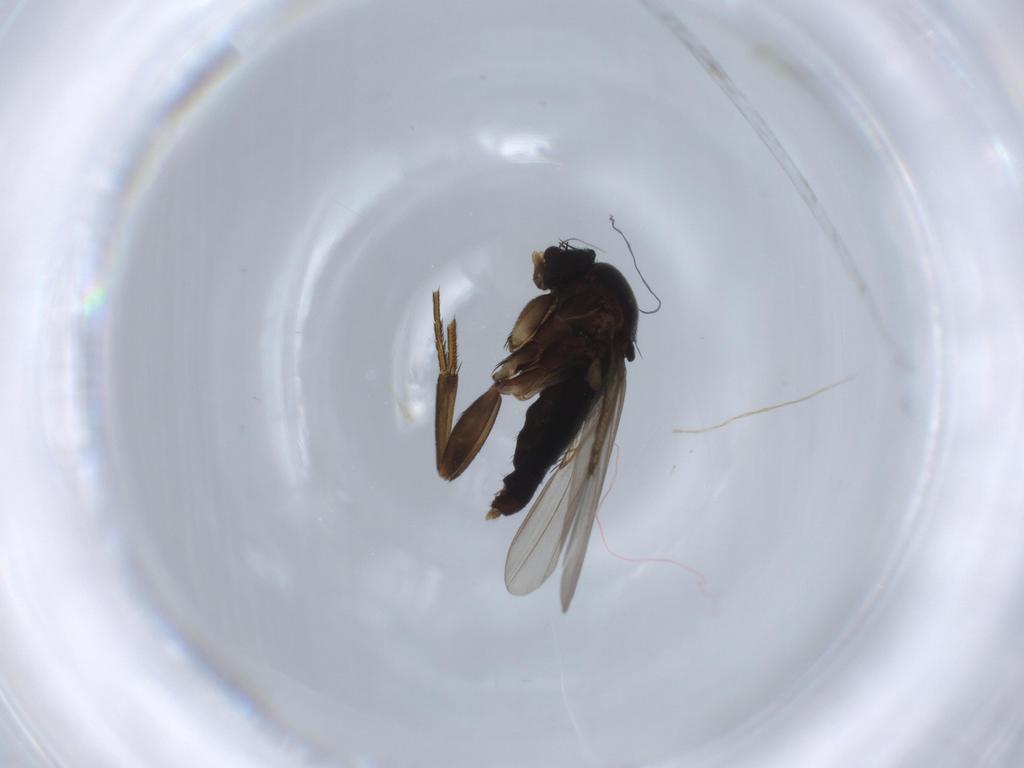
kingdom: Animalia
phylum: Arthropoda
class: Insecta
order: Diptera
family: Phoridae
